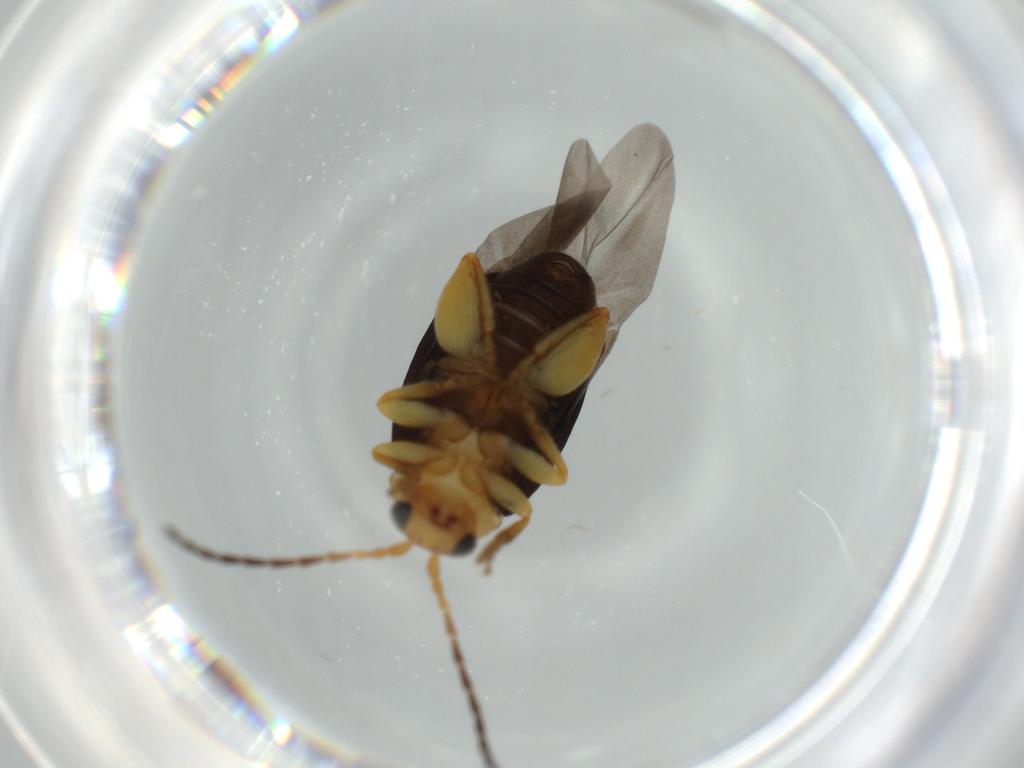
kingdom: Animalia
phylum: Arthropoda
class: Insecta
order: Coleoptera
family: Chrysomelidae
